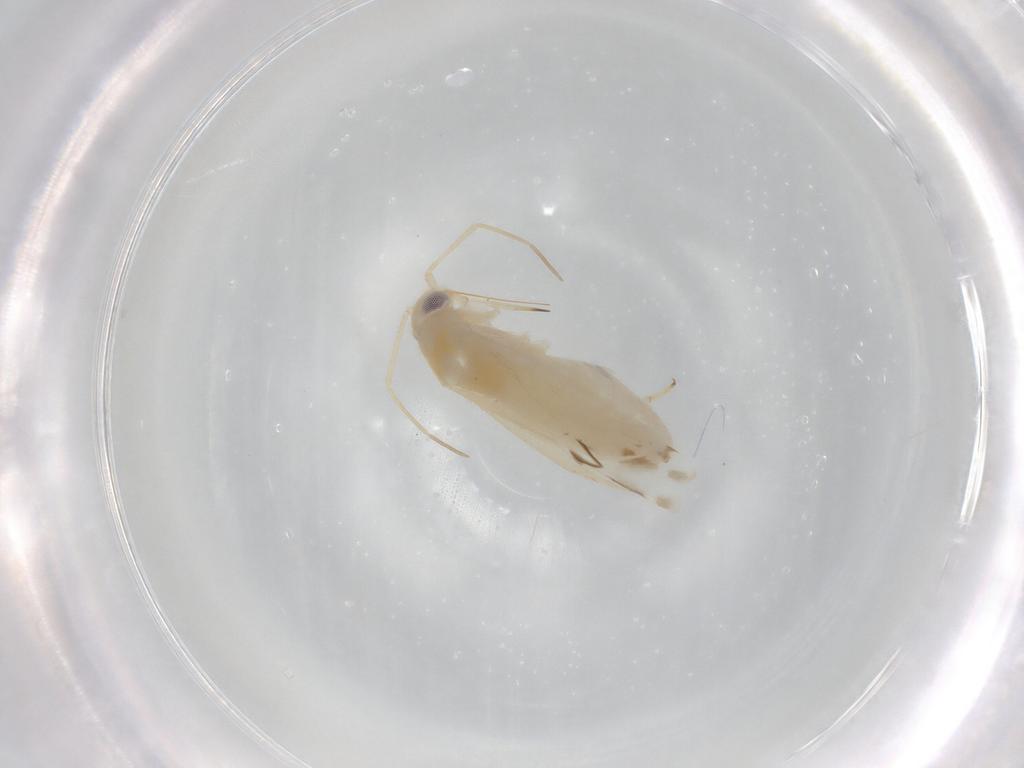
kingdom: Animalia
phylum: Arthropoda
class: Insecta
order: Hemiptera
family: Miridae
